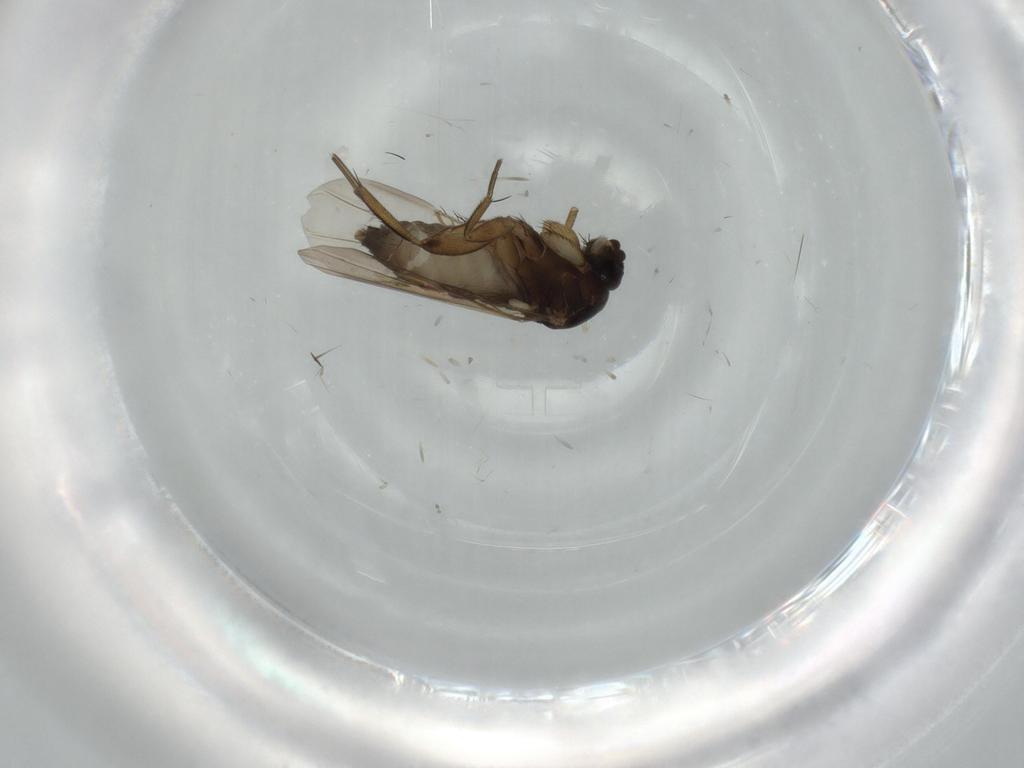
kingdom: Animalia
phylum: Arthropoda
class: Insecta
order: Diptera
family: Phoridae
